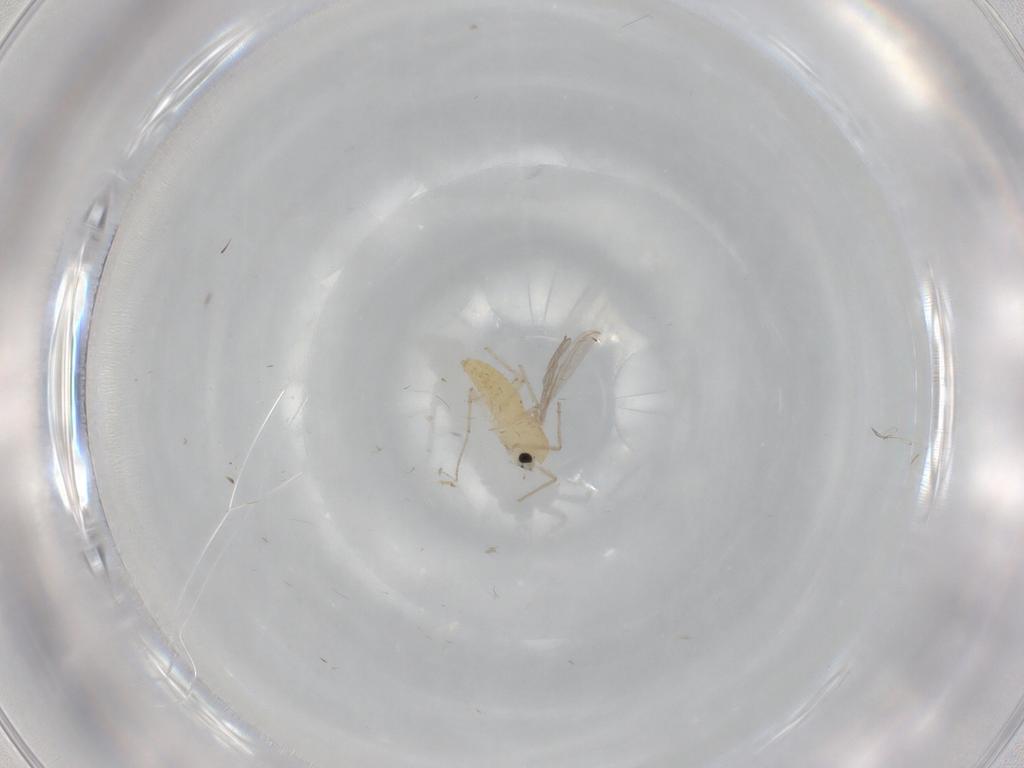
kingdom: Animalia
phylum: Arthropoda
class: Insecta
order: Diptera
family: Chironomidae
